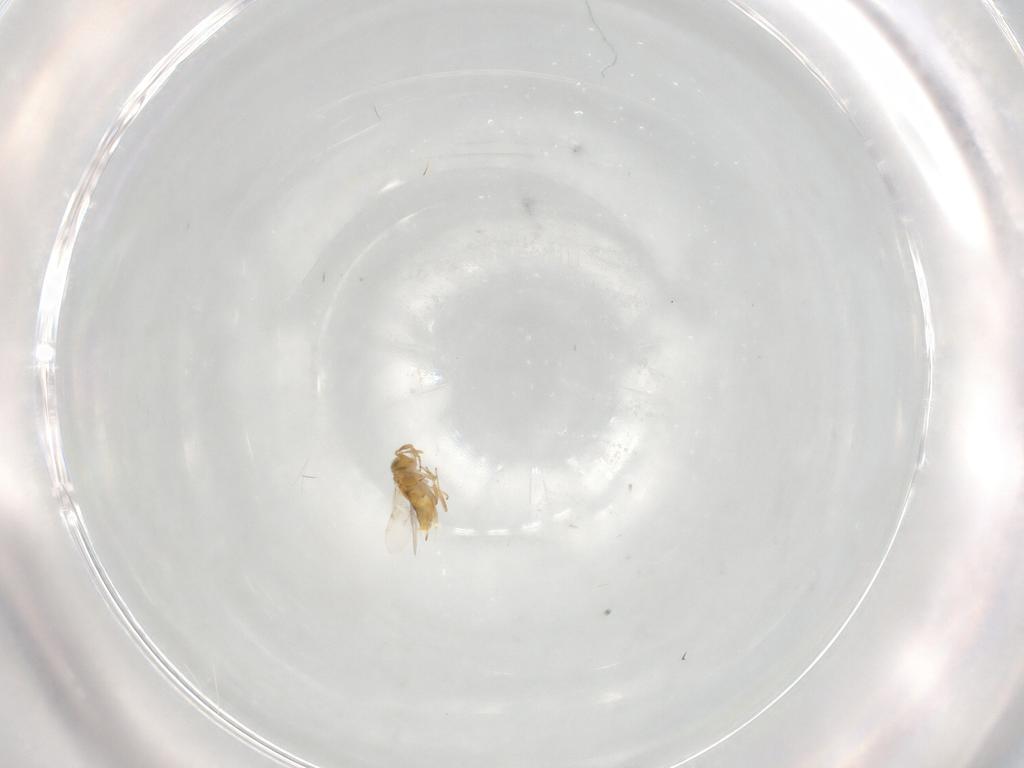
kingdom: Animalia
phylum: Arthropoda
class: Insecta
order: Hymenoptera
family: Encyrtidae
